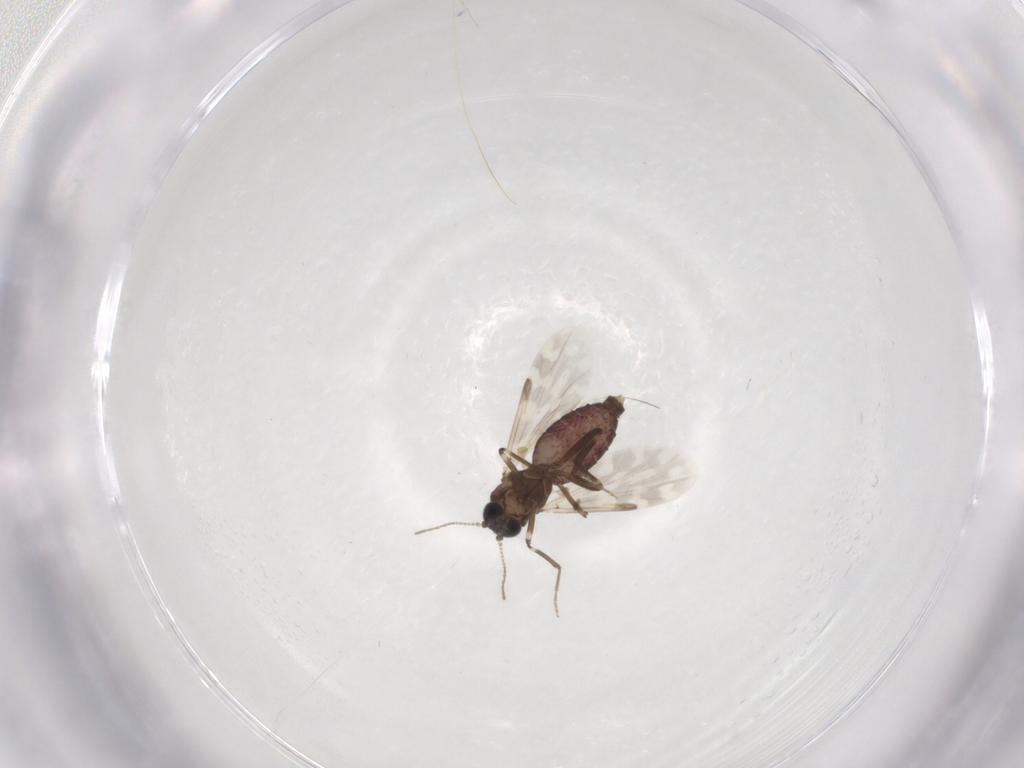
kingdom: Animalia
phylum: Arthropoda
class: Insecta
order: Diptera
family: Ceratopogonidae
